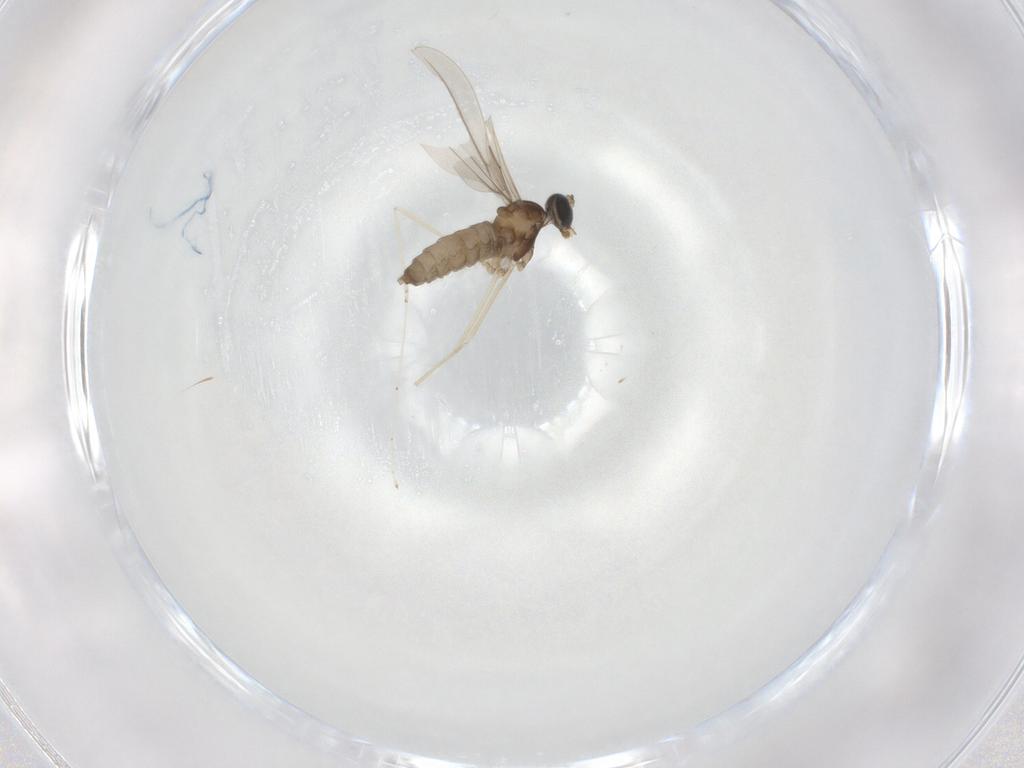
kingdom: Animalia
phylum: Arthropoda
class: Insecta
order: Diptera
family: Cecidomyiidae
